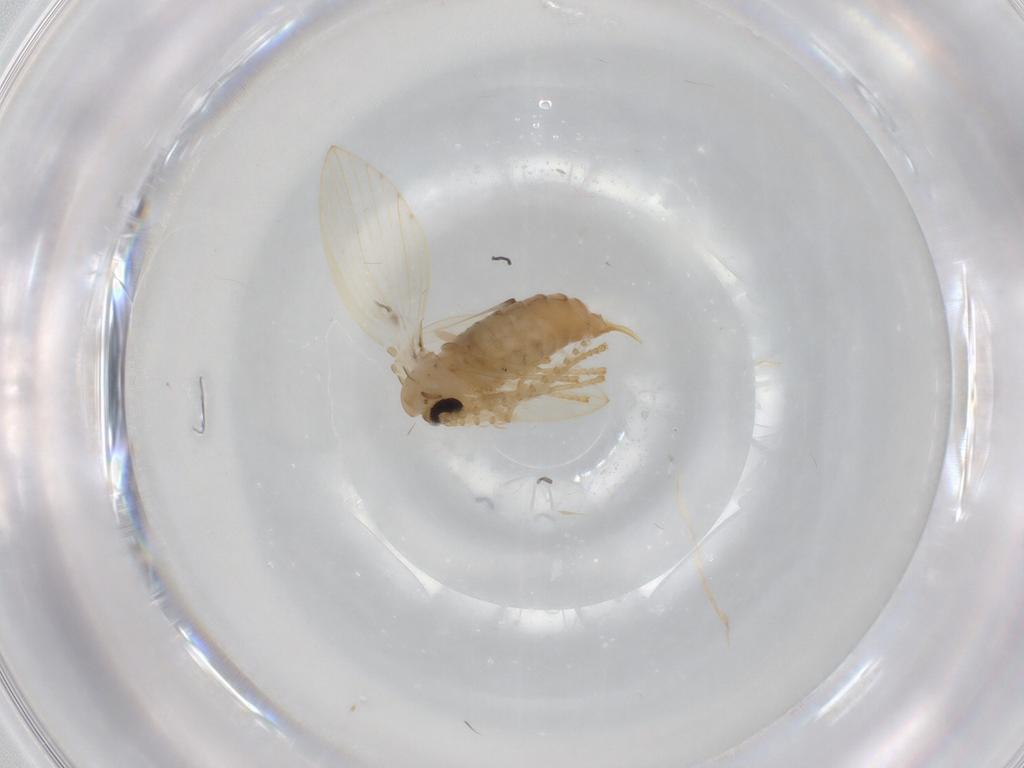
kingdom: Animalia
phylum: Arthropoda
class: Insecta
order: Diptera
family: Psychodidae
